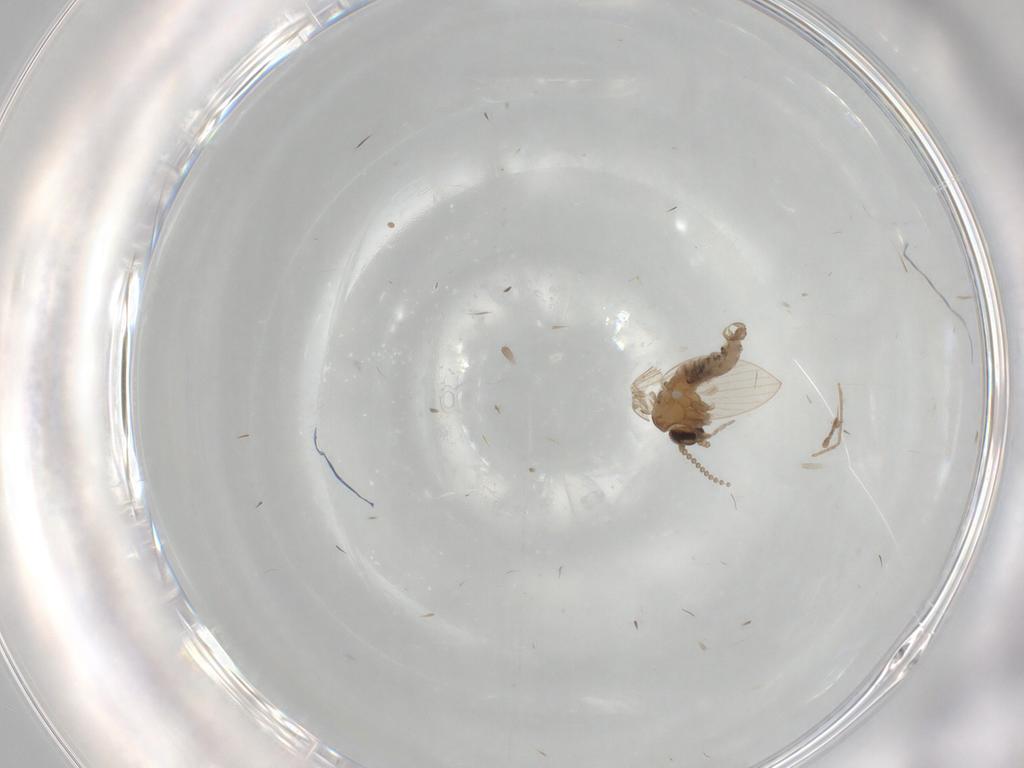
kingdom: Animalia
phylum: Arthropoda
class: Insecta
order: Diptera
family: Psychodidae
